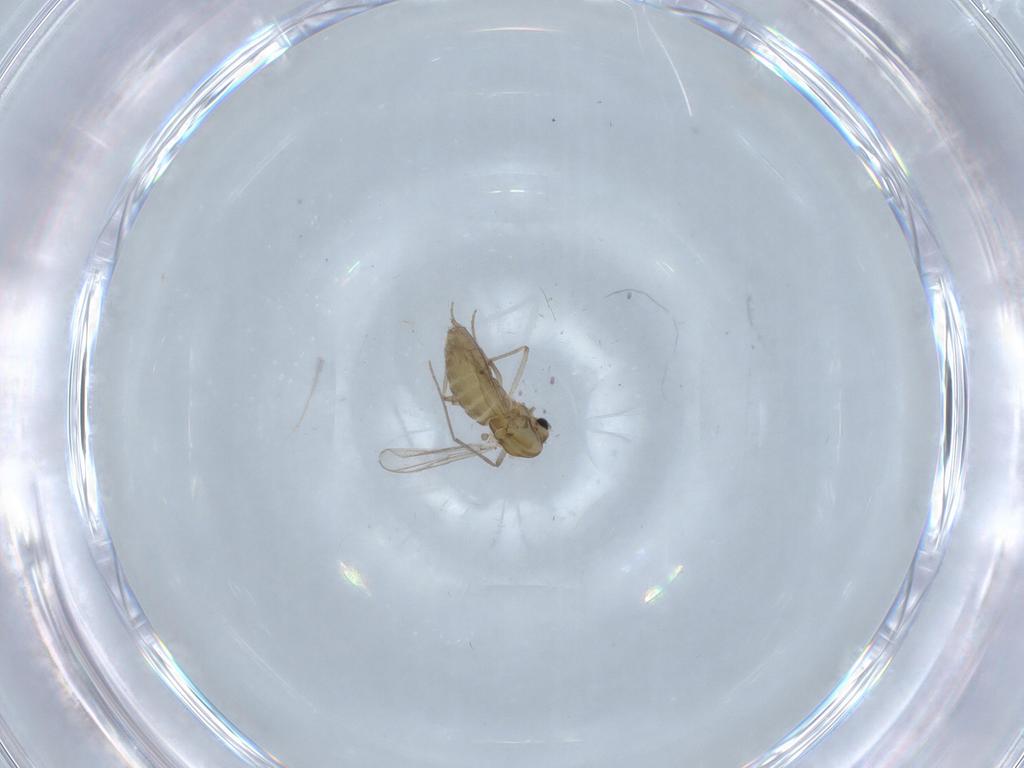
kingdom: Animalia
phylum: Arthropoda
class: Insecta
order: Diptera
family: Chironomidae
